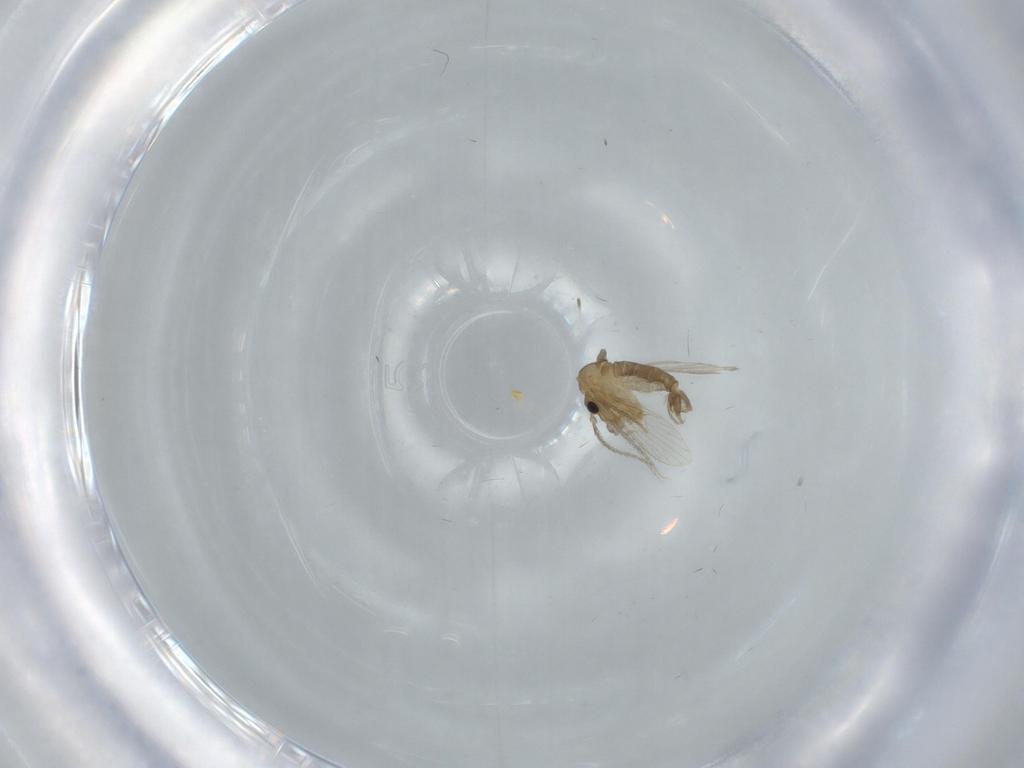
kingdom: Animalia
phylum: Arthropoda
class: Insecta
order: Diptera
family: Psychodidae
